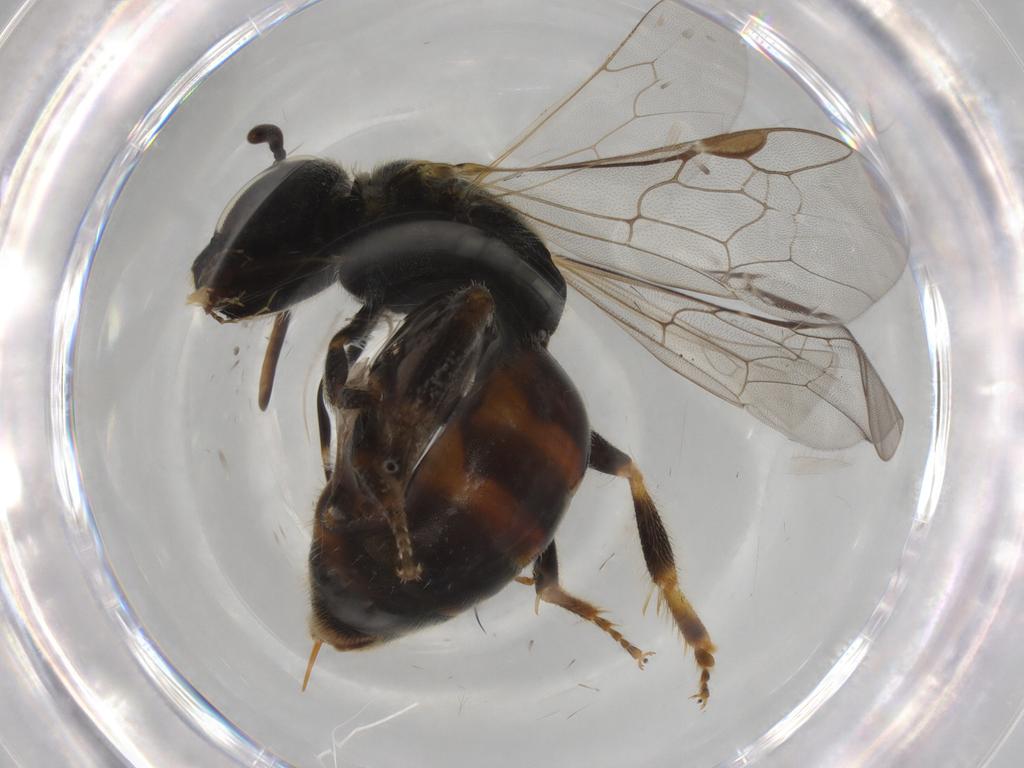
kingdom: Animalia
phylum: Arthropoda
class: Insecta
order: Hymenoptera
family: Halictidae
